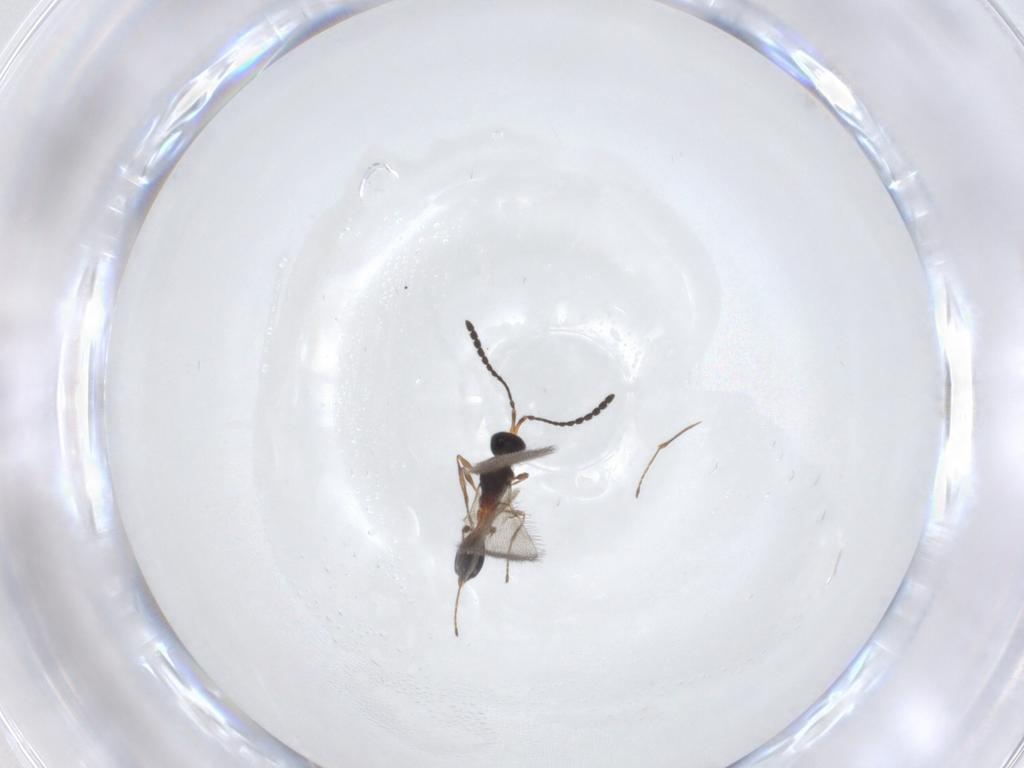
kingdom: Animalia
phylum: Arthropoda
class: Insecta
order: Hymenoptera
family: Diapriidae
